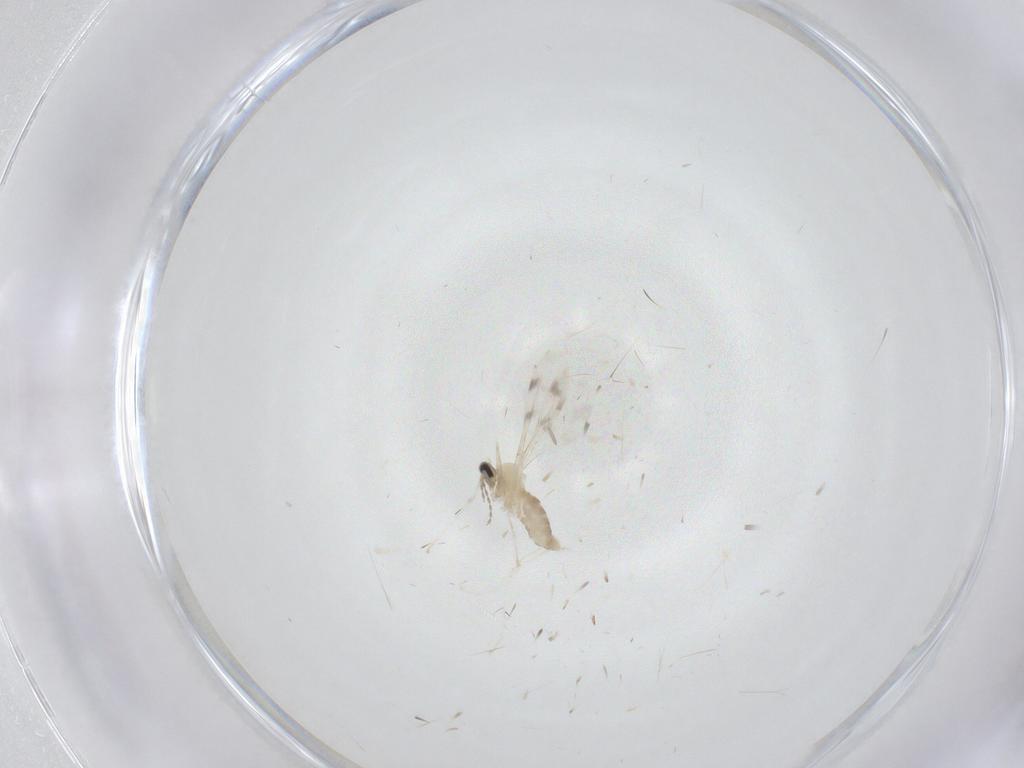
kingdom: Animalia
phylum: Arthropoda
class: Insecta
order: Diptera
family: Cecidomyiidae
